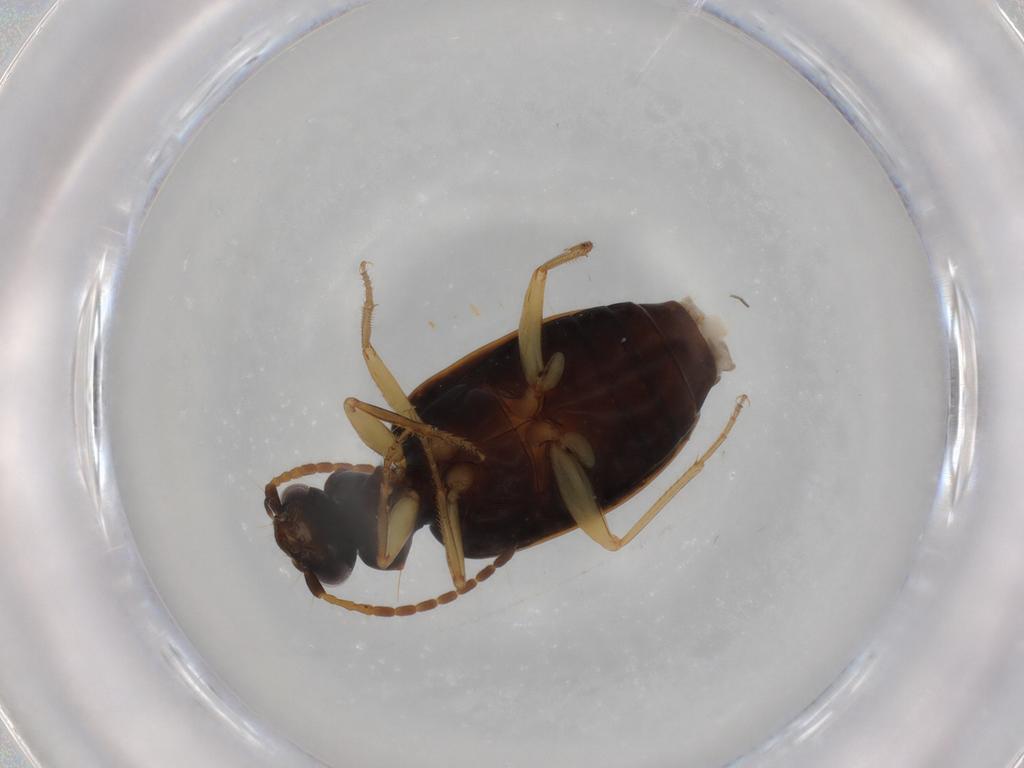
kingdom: Animalia
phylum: Arthropoda
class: Insecta
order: Coleoptera
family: Carabidae
